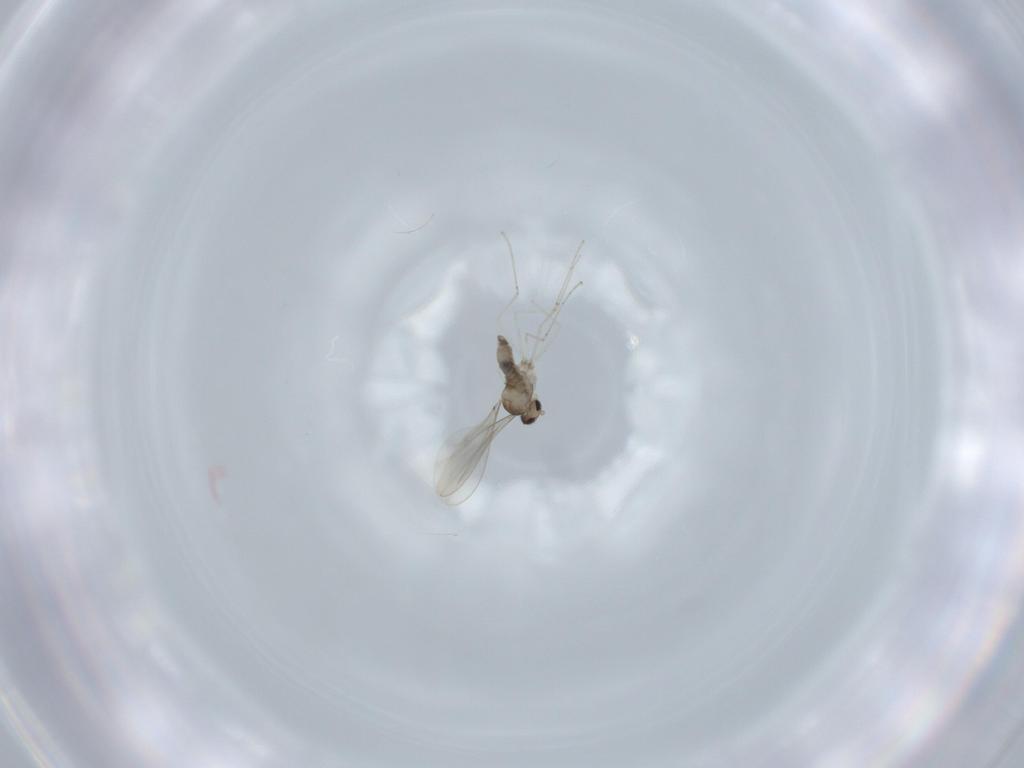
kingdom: Animalia
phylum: Arthropoda
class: Insecta
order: Diptera
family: Cecidomyiidae
